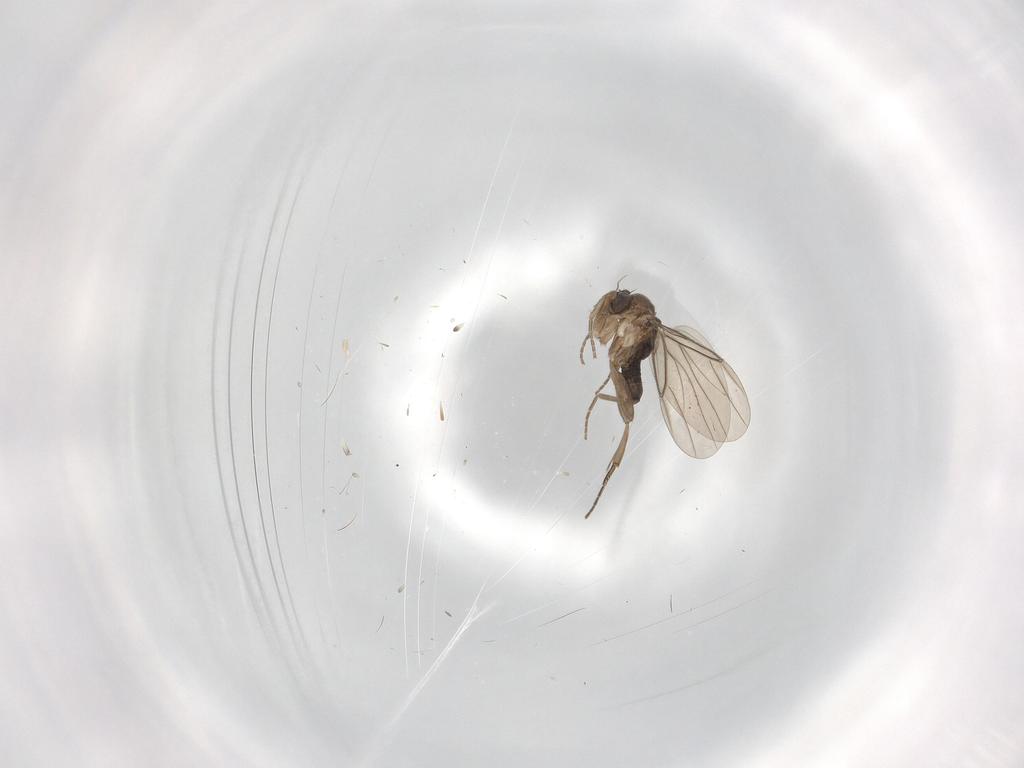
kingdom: Animalia
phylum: Arthropoda
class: Insecta
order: Diptera
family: Phoridae
